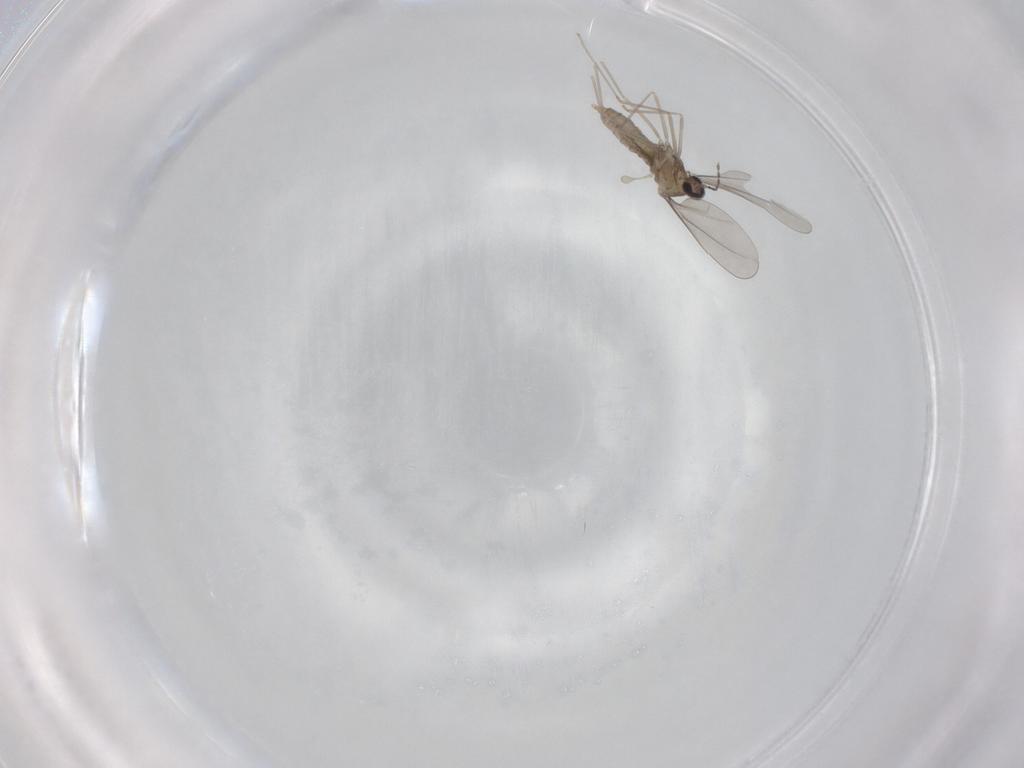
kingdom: Animalia
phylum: Arthropoda
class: Insecta
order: Diptera
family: Cecidomyiidae
